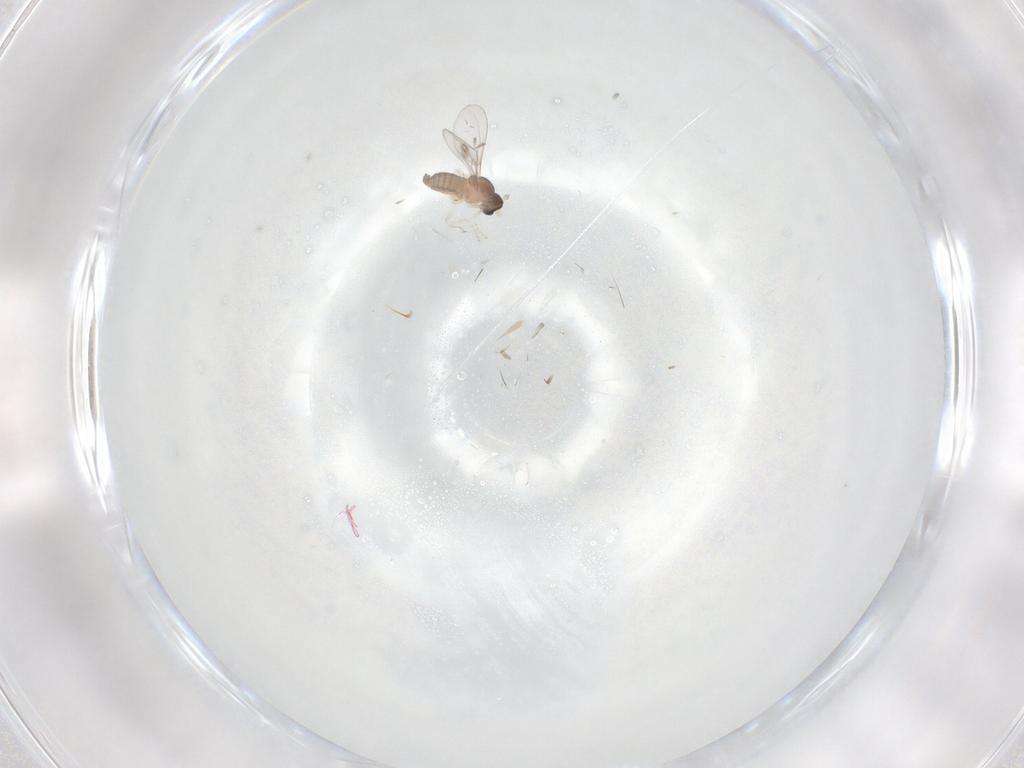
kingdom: Animalia
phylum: Arthropoda
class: Insecta
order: Diptera
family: Cecidomyiidae
